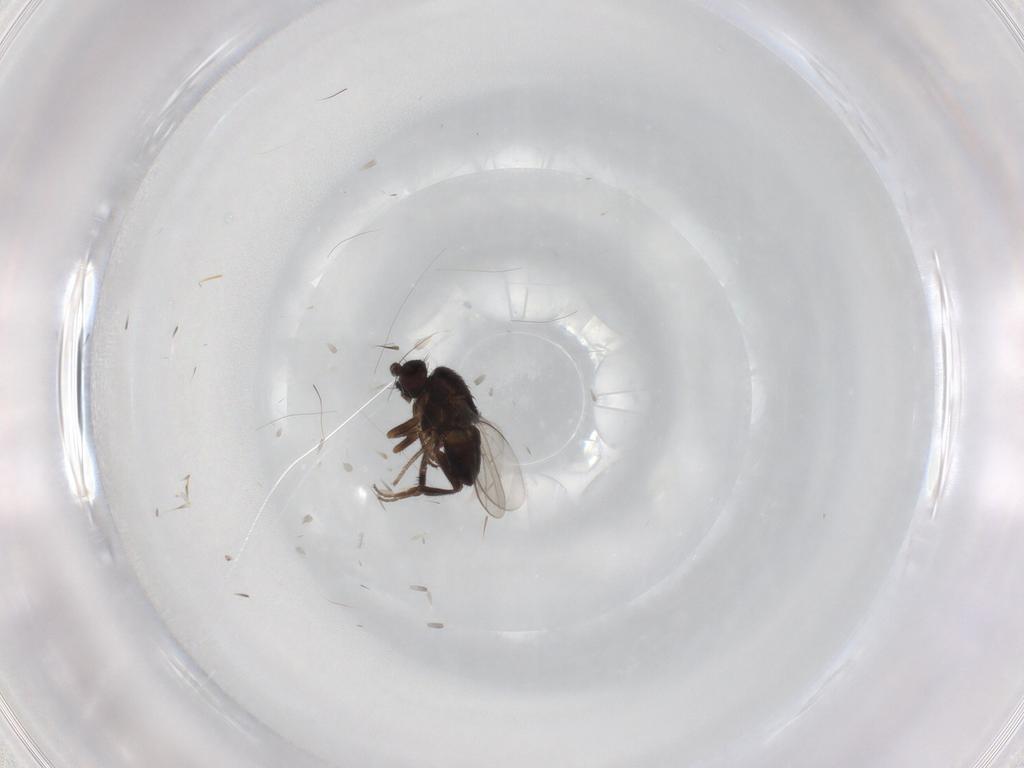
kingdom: Animalia
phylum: Arthropoda
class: Insecta
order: Diptera
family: Sphaeroceridae
